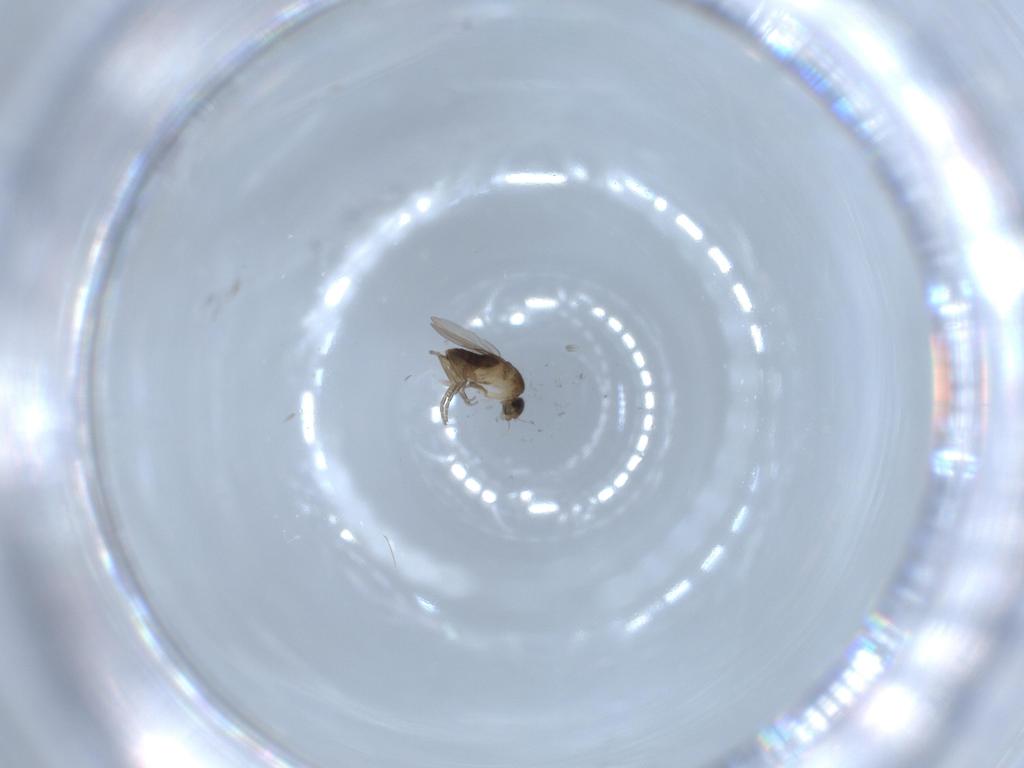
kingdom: Animalia
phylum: Arthropoda
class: Insecta
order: Diptera
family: Phoridae
